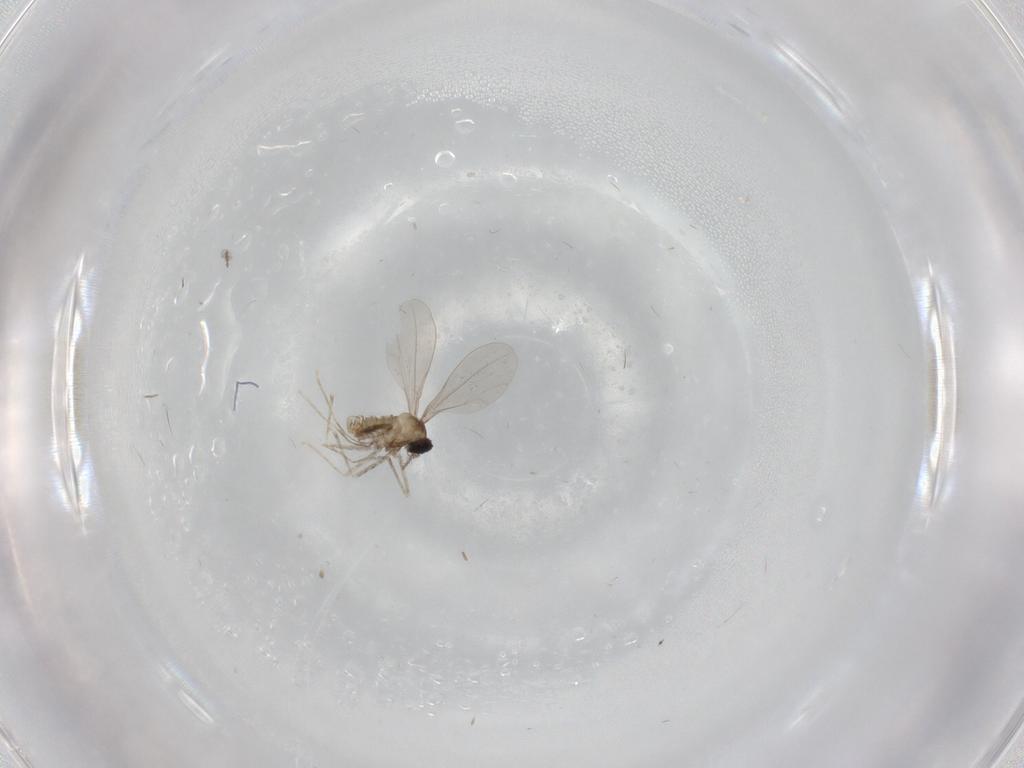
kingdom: Animalia
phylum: Arthropoda
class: Insecta
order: Diptera
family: Cecidomyiidae
